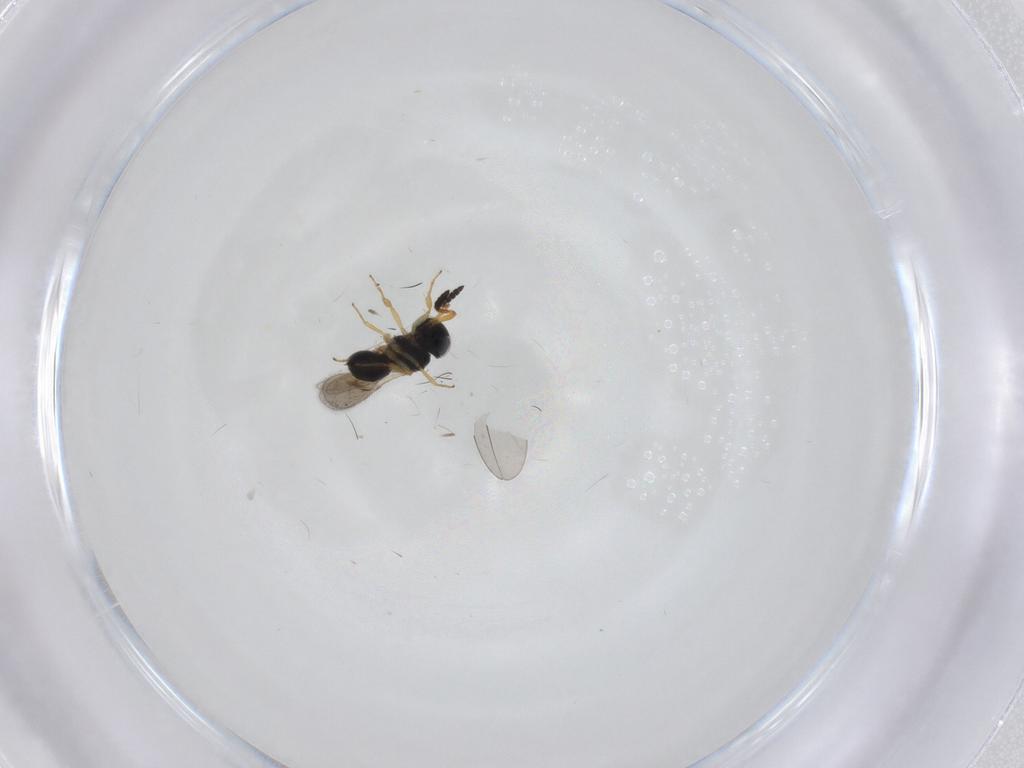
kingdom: Animalia
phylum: Arthropoda
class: Insecta
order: Hymenoptera
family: Scelionidae
